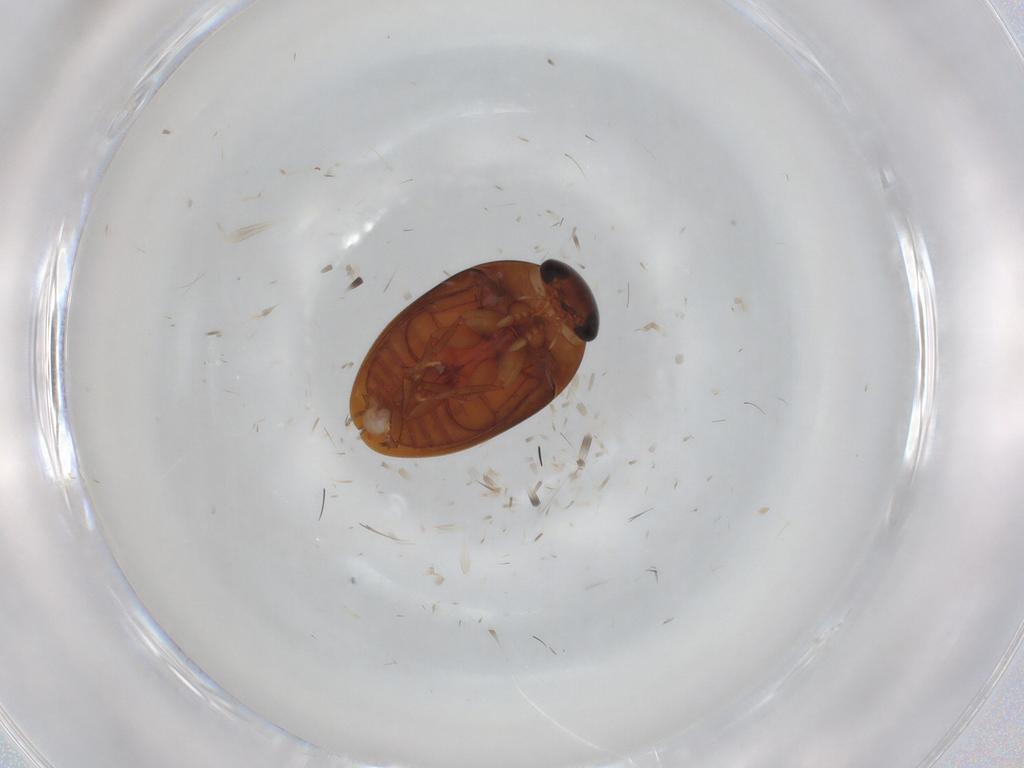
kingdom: Animalia
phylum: Arthropoda
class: Insecta
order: Coleoptera
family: Phalacridae
